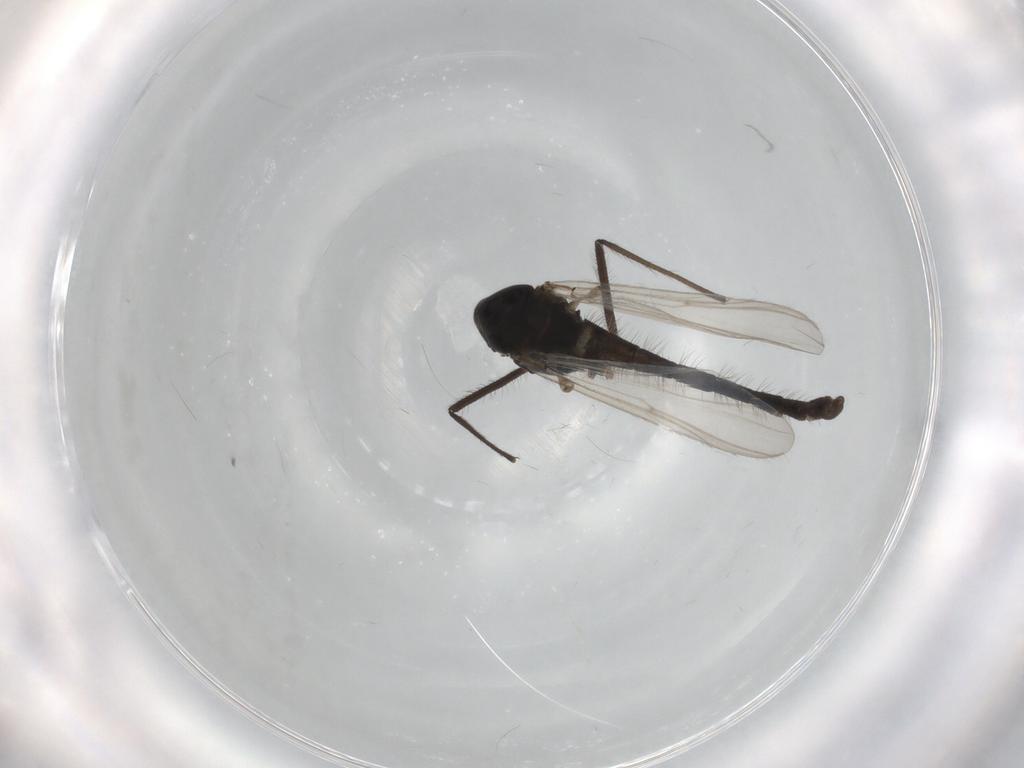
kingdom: Animalia
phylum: Arthropoda
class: Insecta
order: Diptera
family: Chironomidae
